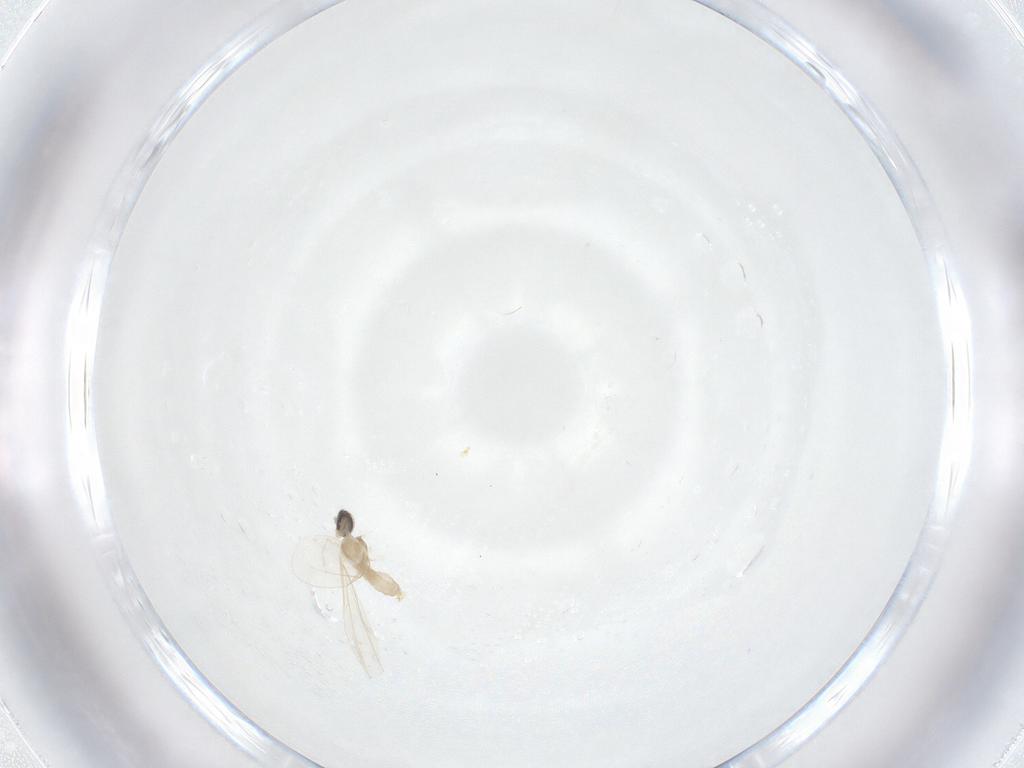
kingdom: Animalia
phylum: Arthropoda
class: Insecta
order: Diptera
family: Cecidomyiidae
